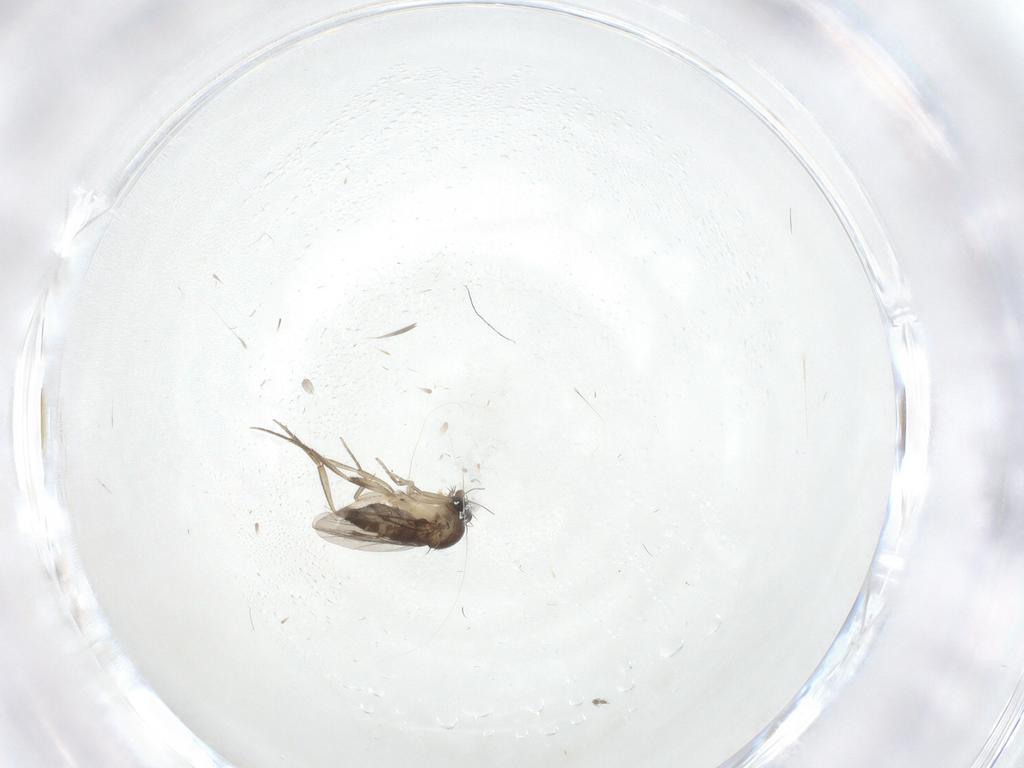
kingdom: Animalia
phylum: Arthropoda
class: Insecta
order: Diptera
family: Phoridae
